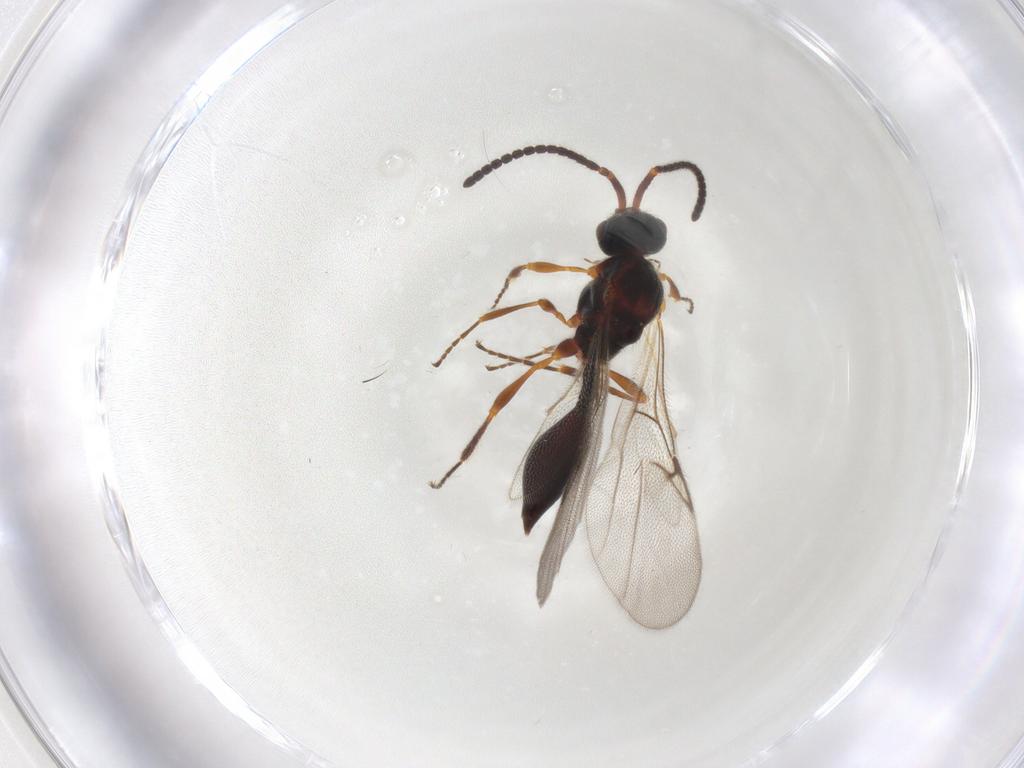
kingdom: Animalia
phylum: Arthropoda
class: Insecta
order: Hymenoptera
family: Diapriidae
